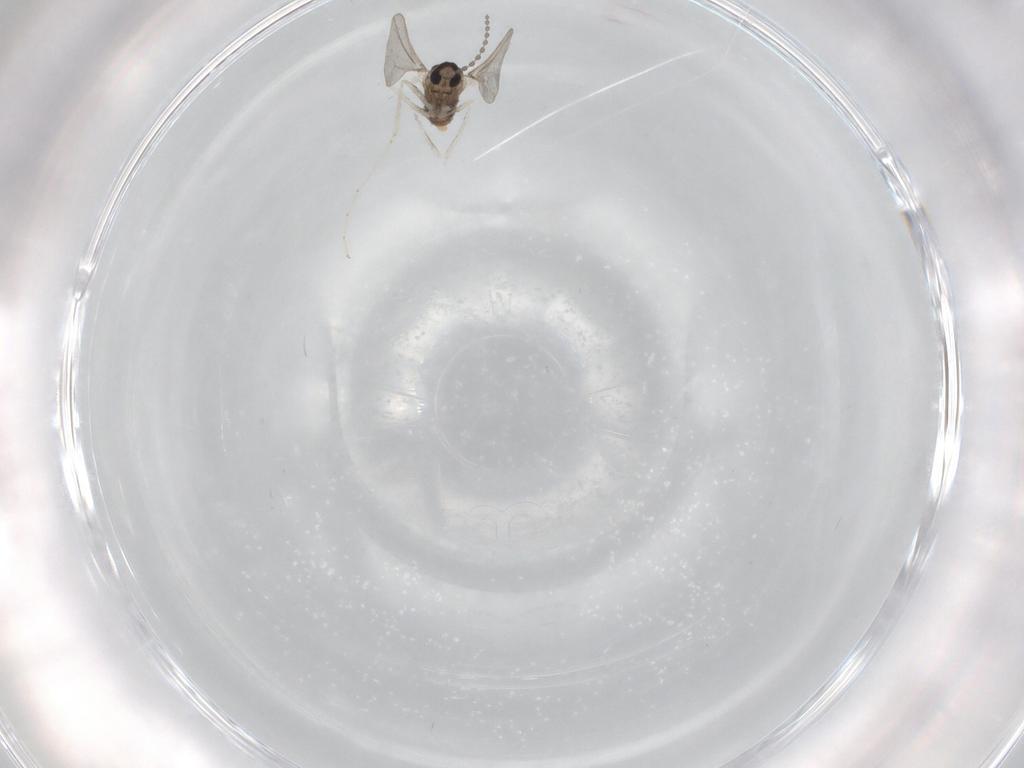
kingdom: Animalia
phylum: Arthropoda
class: Insecta
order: Diptera
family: Cecidomyiidae
